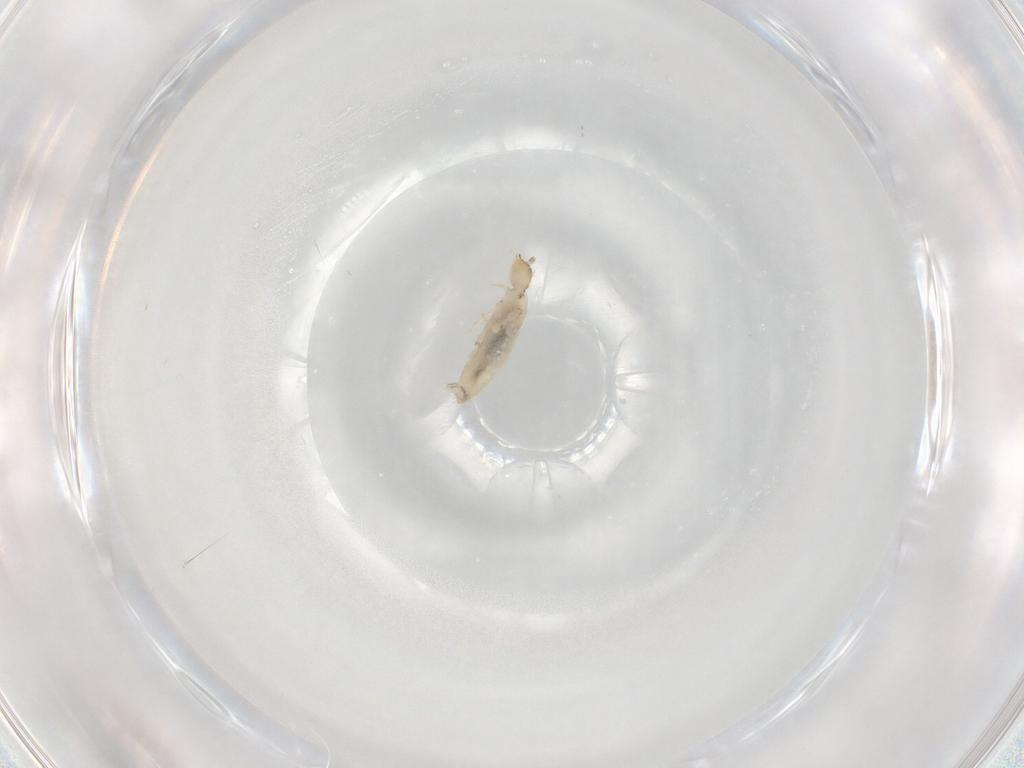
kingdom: Animalia
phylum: Arthropoda
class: Collembola
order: Entomobryomorpha
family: Entomobryidae
